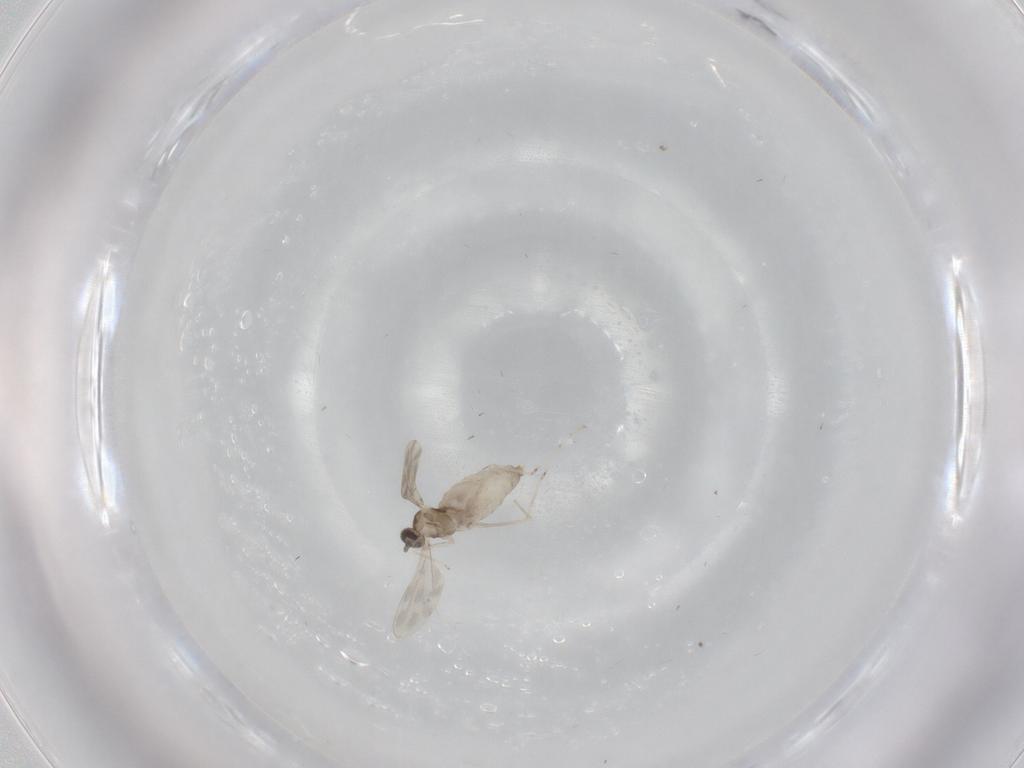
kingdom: Animalia
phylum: Arthropoda
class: Insecta
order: Diptera
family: Cecidomyiidae
